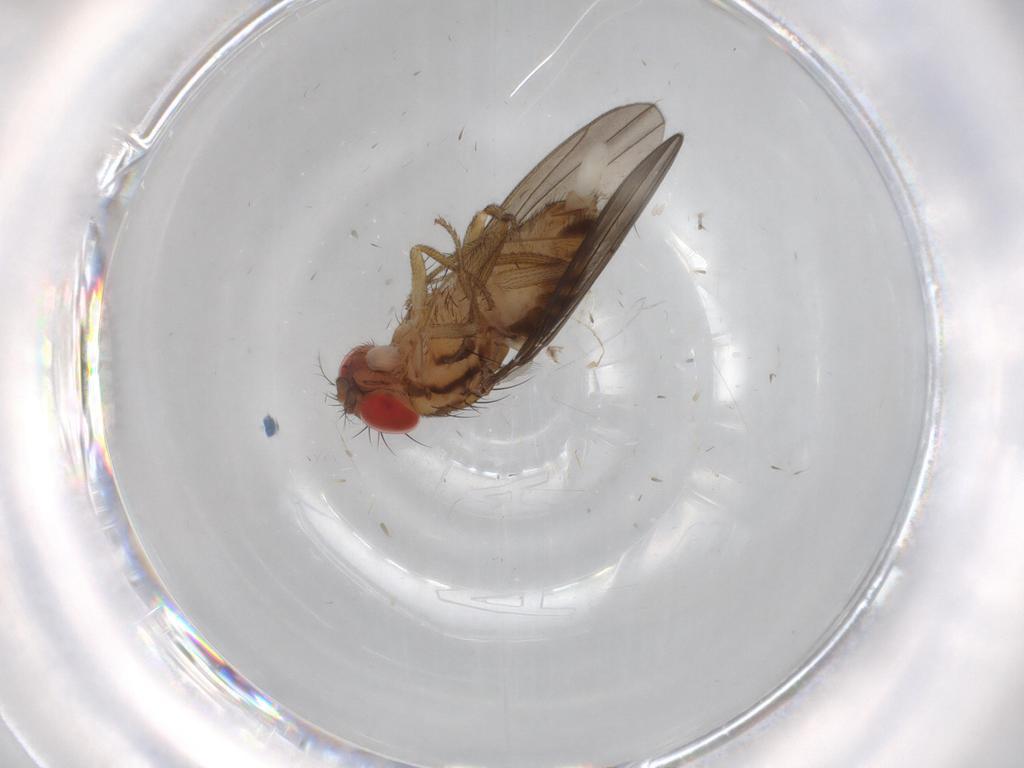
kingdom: Animalia
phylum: Arthropoda
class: Insecta
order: Diptera
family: Drosophilidae
